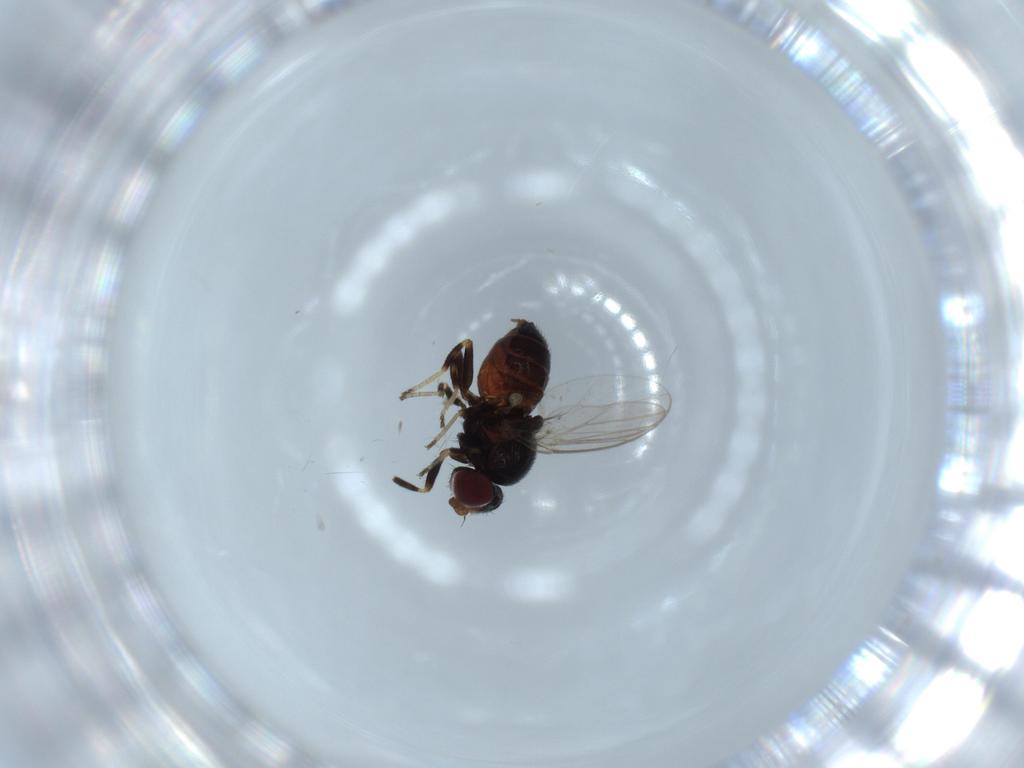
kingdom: Animalia
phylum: Arthropoda
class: Insecta
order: Diptera
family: Chloropidae
